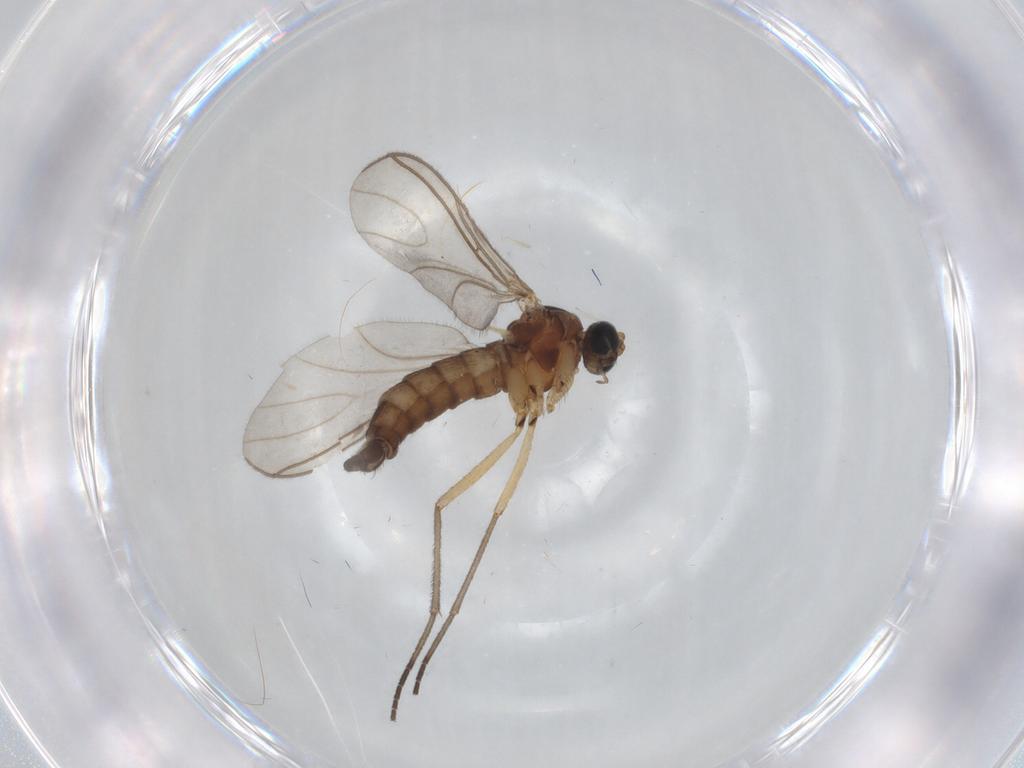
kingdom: Animalia
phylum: Arthropoda
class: Insecta
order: Diptera
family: Sciaridae
